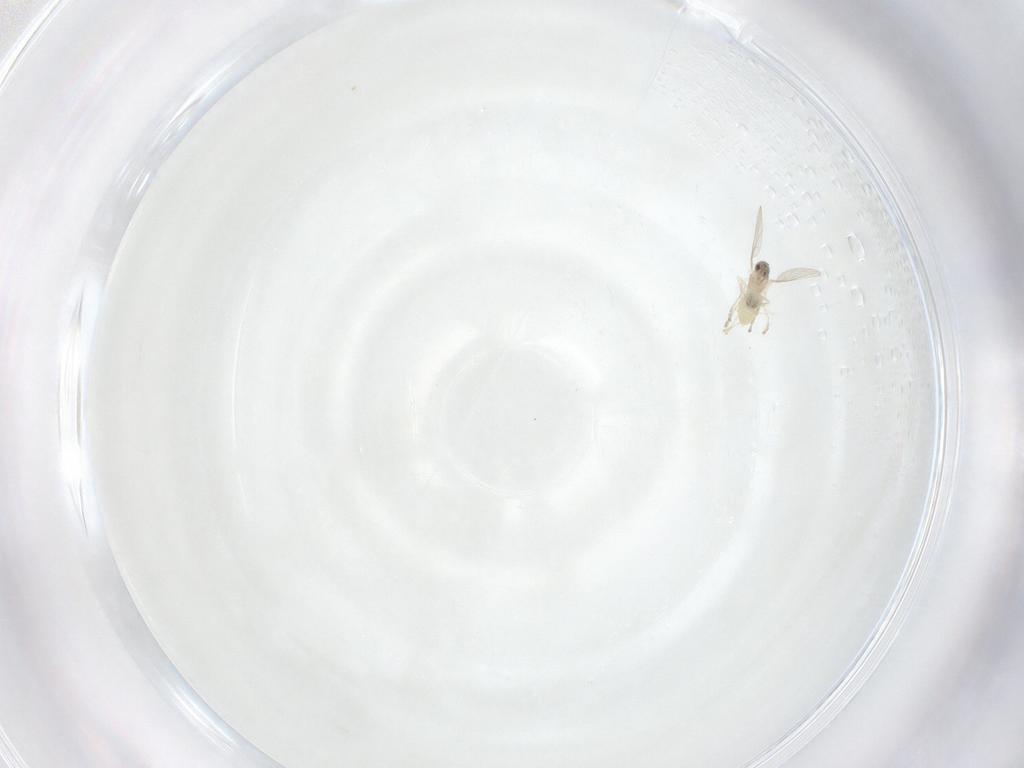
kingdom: Animalia
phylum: Arthropoda
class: Insecta
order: Diptera
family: Cecidomyiidae
